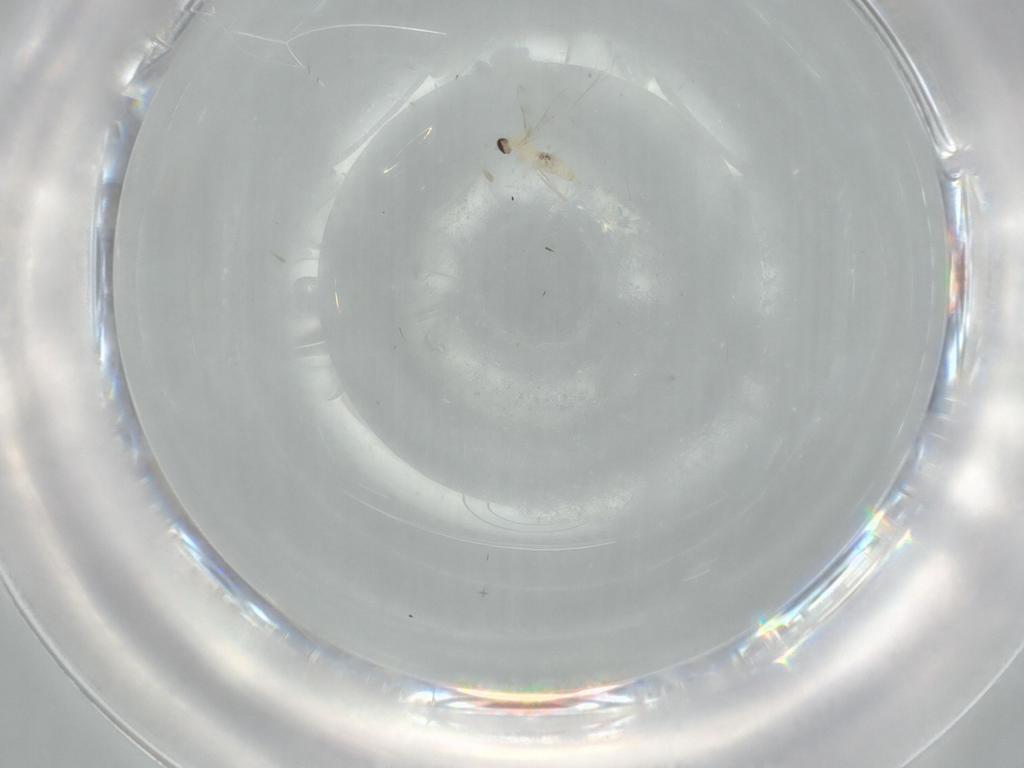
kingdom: Animalia
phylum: Arthropoda
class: Insecta
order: Diptera
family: Therevidae
